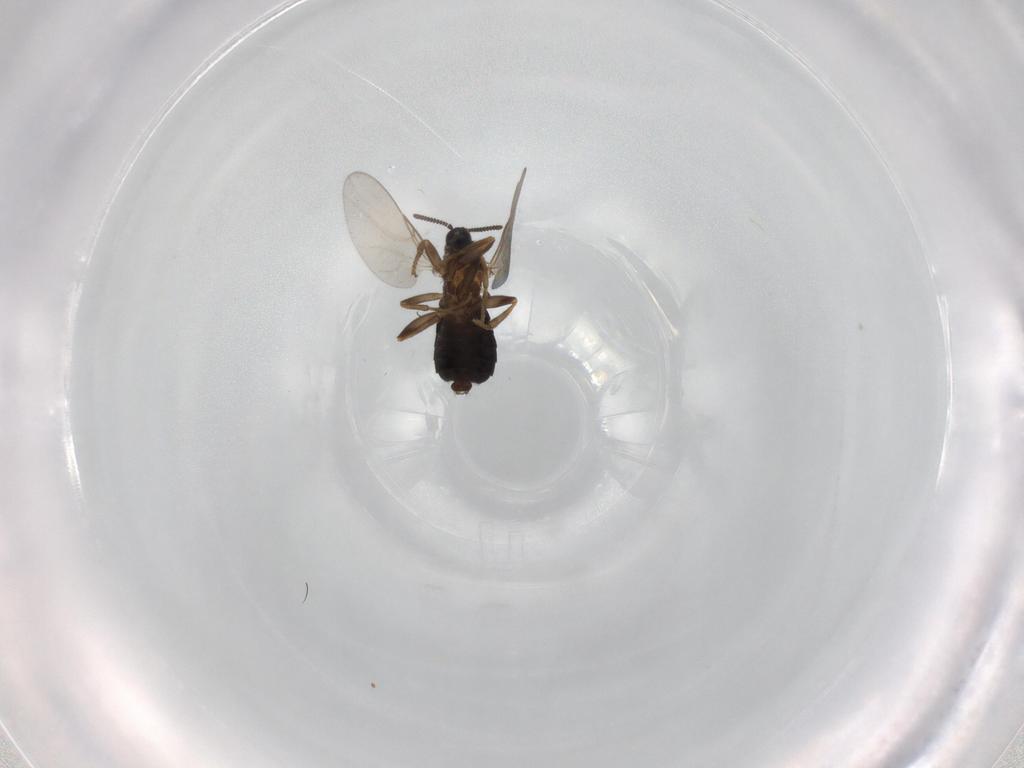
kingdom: Animalia
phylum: Arthropoda
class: Insecta
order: Diptera
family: Scatopsidae
